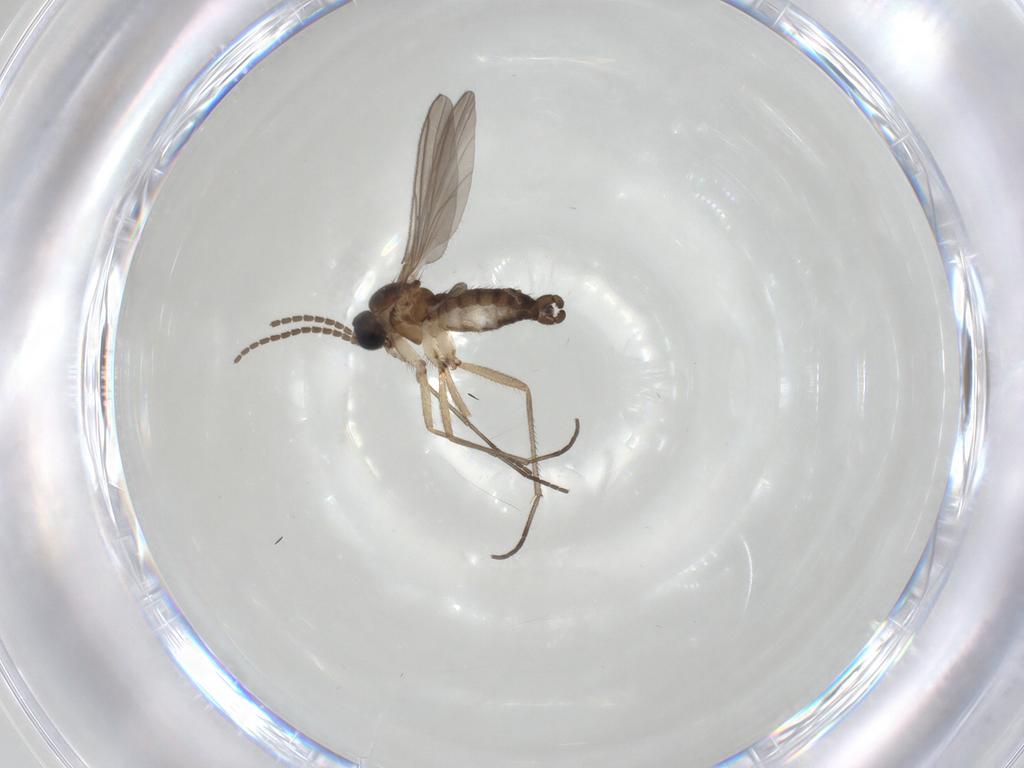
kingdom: Animalia
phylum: Arthropoda
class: Insecta
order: Diptera
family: Sciaridae
